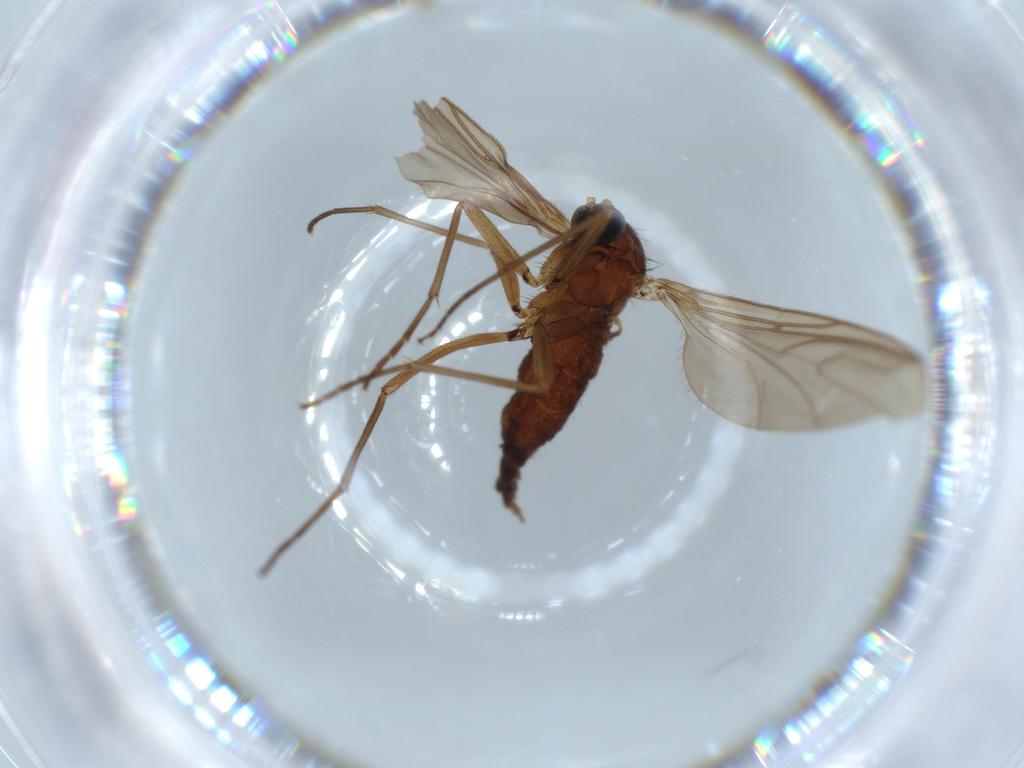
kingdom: Animalia
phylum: Arthropoda
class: Insecta
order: Diptera
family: Sciaridae
